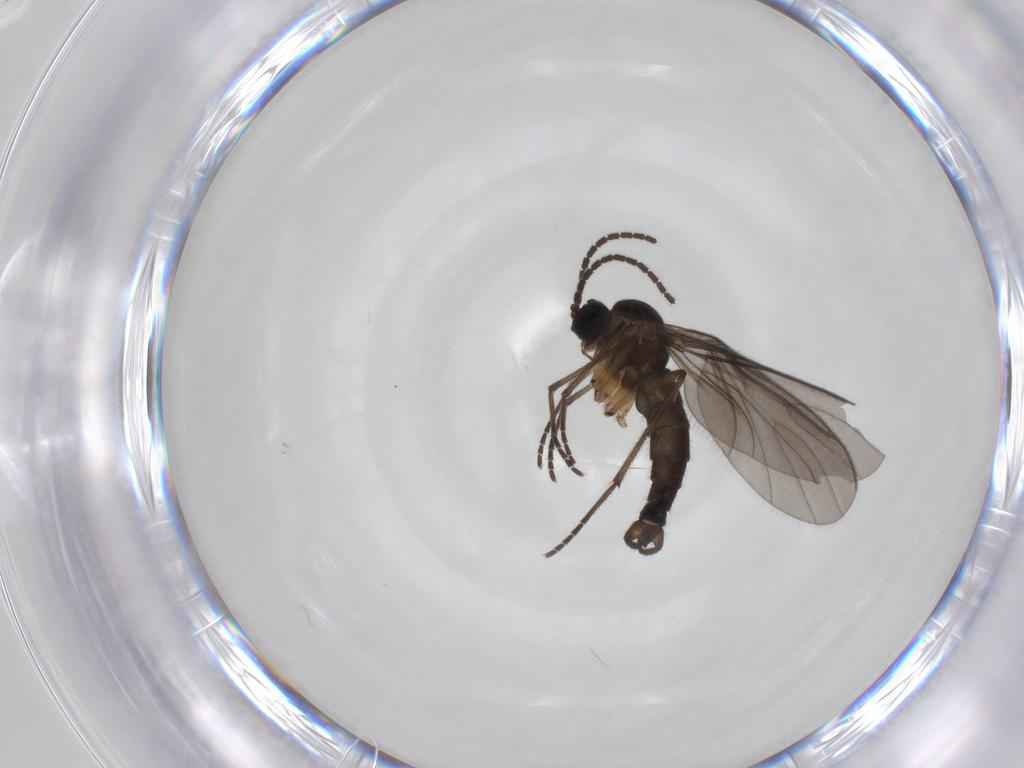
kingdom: Animalia
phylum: Arthropoda
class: Insecta
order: Diptera
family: Sciaridae
